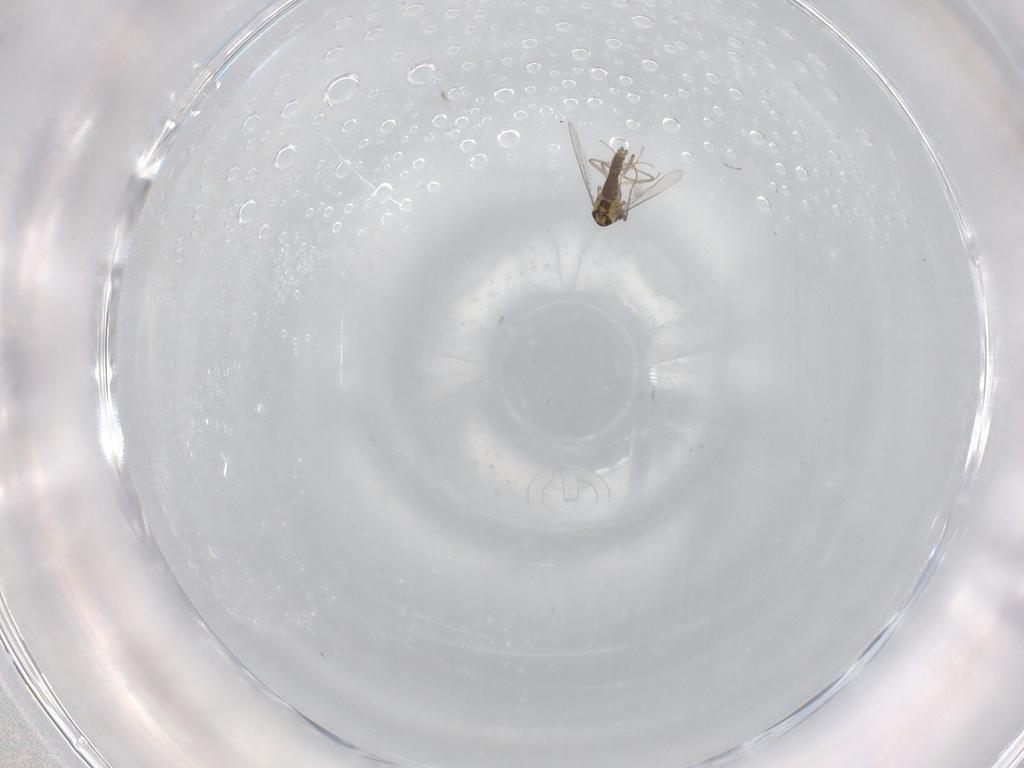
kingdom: Animalia
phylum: Arthropoda
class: Insecta
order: Diptera
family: Chironomidae
